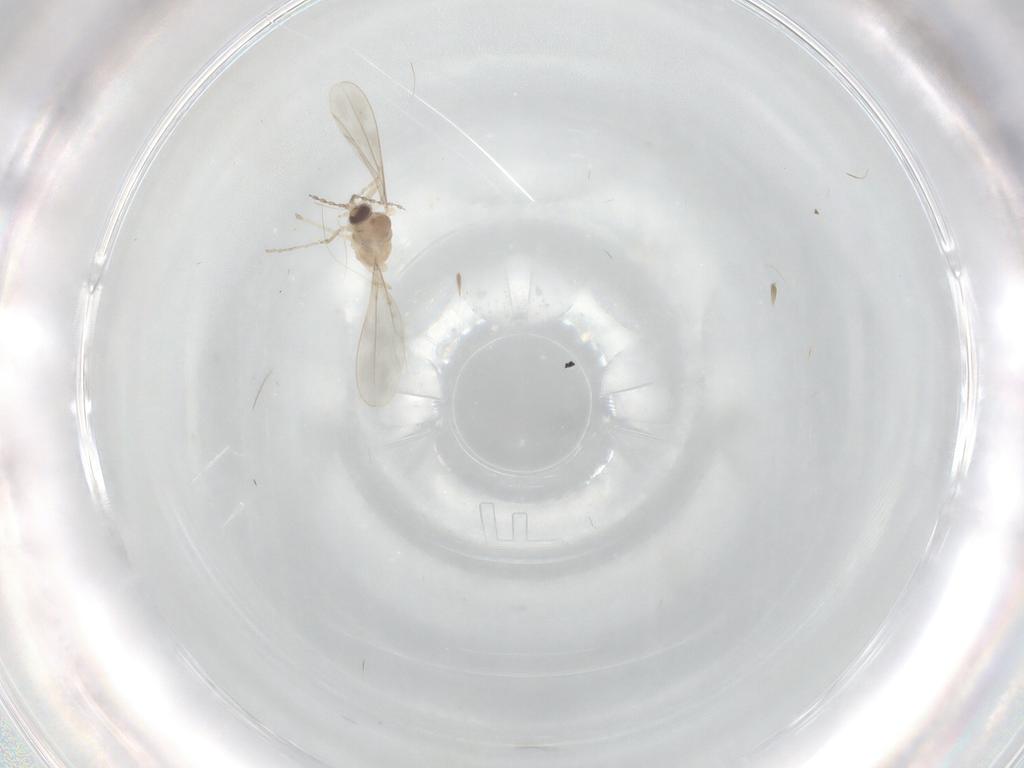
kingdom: Animalia
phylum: Arthropoda
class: Insecta
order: Diptera
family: Cecidomyiidae
